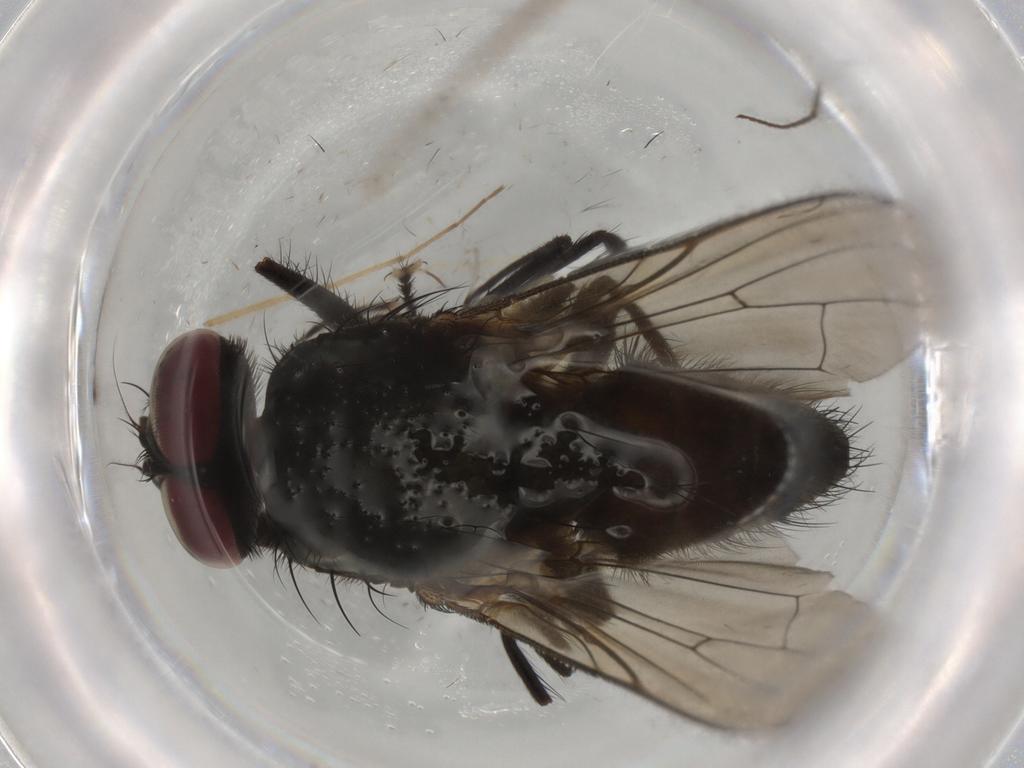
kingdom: Animalia
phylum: Arthropoda
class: Insecta
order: Diptera
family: Muscidae
